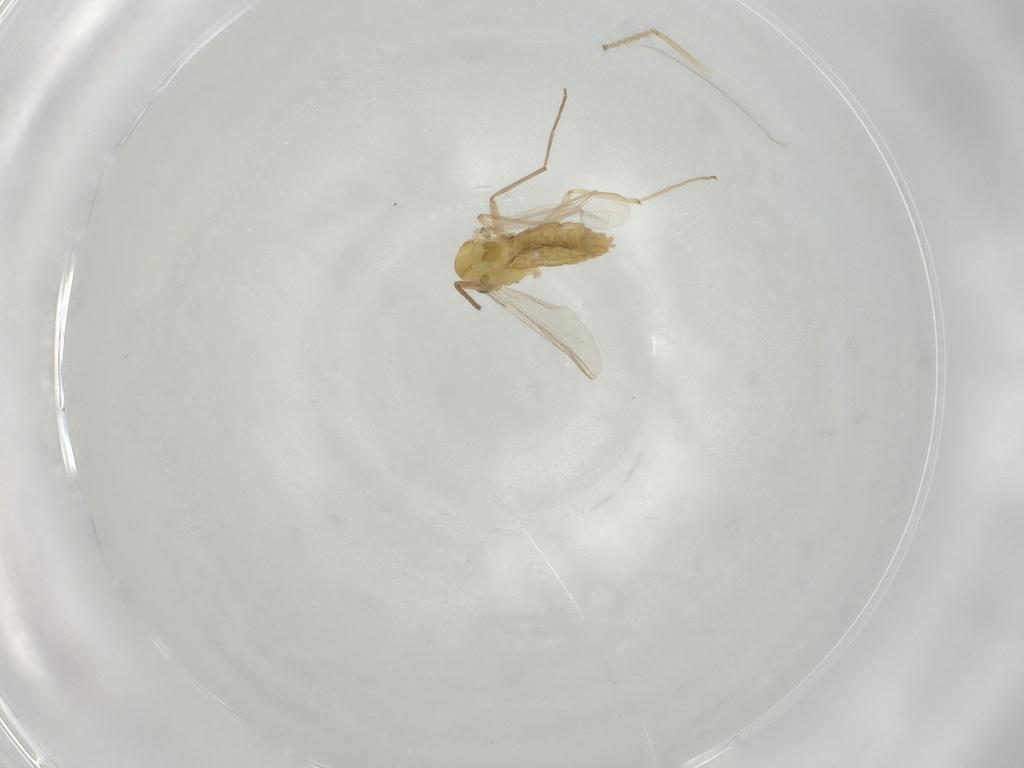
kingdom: Animalia
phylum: Arthropoda
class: Insecta
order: Diptera
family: Chironomidae
